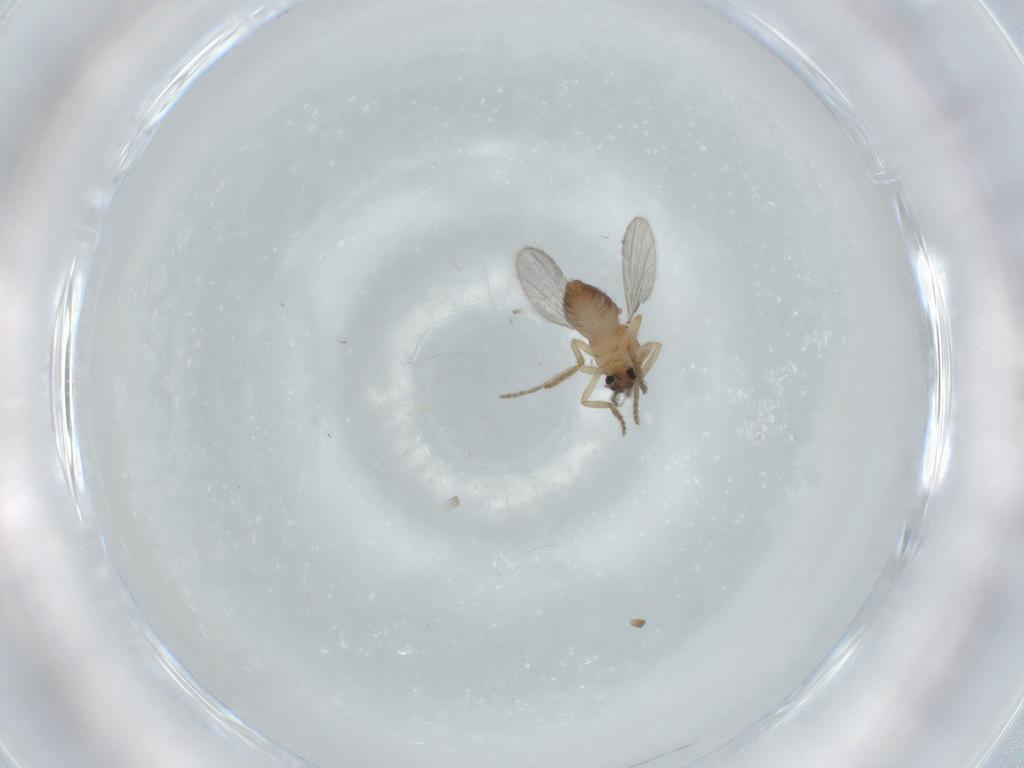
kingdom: Animalia
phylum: Arthropoda
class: Insecta
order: Diptera
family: Ceratopogonidae
